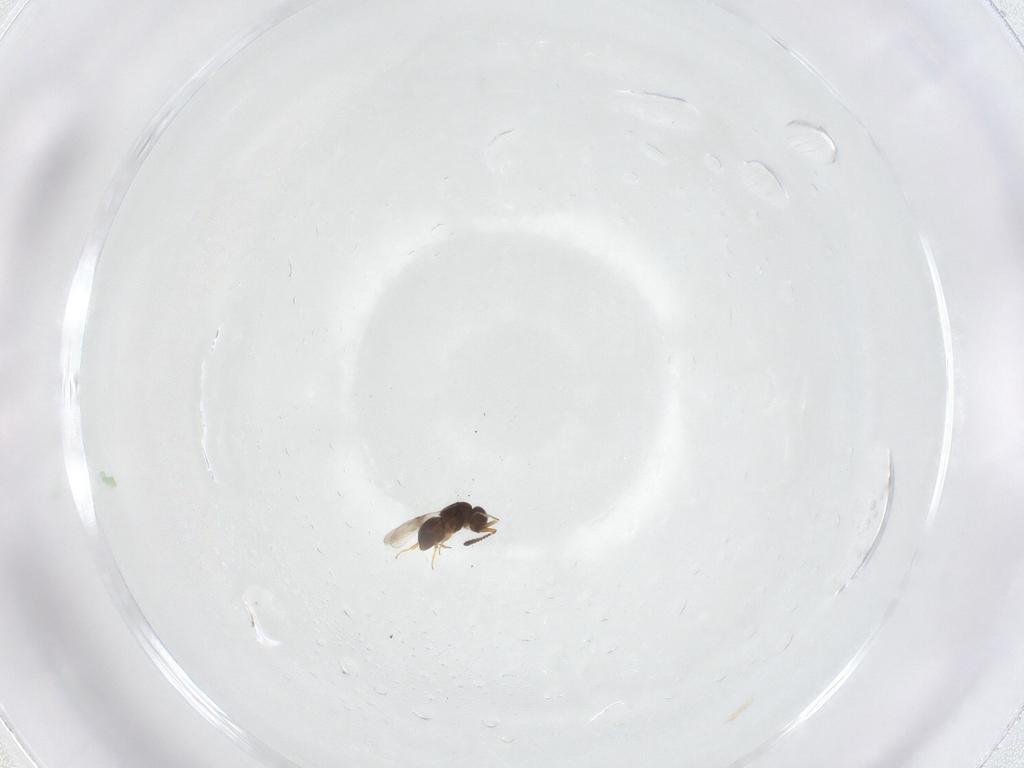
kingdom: Animalia
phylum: Arthropoda
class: Insecta
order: Hymenoptera
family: Ceraphronidae
